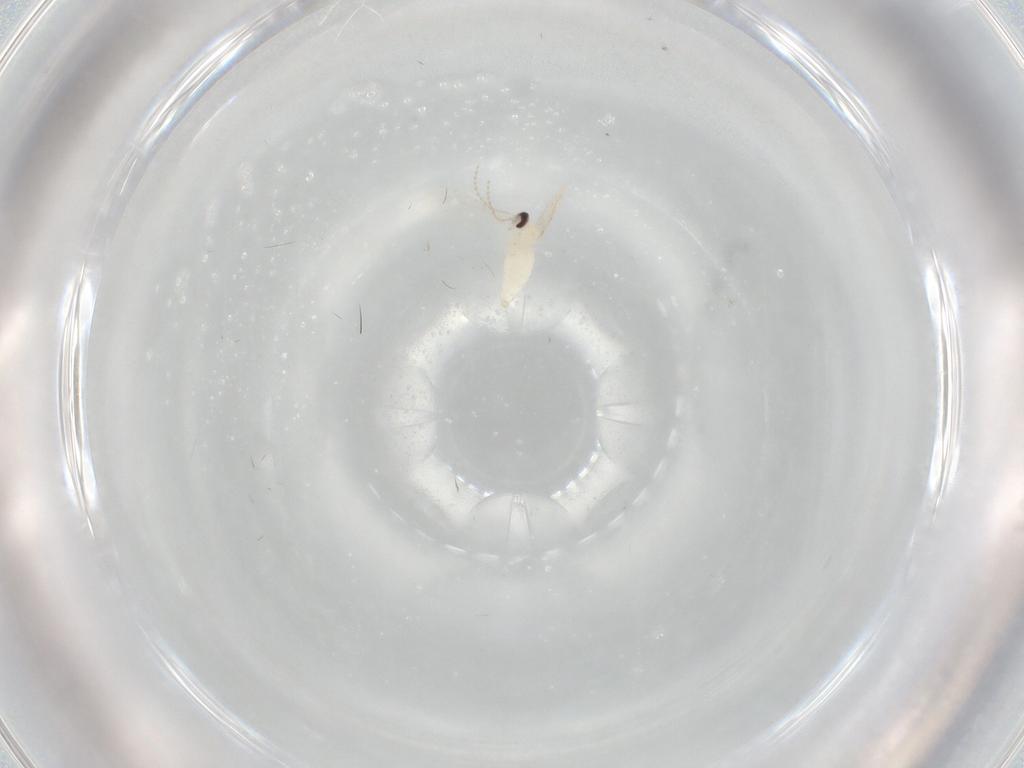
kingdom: Animalia
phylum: Arthropoda
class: Insecta
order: Diptera
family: Cecidomyiidae
